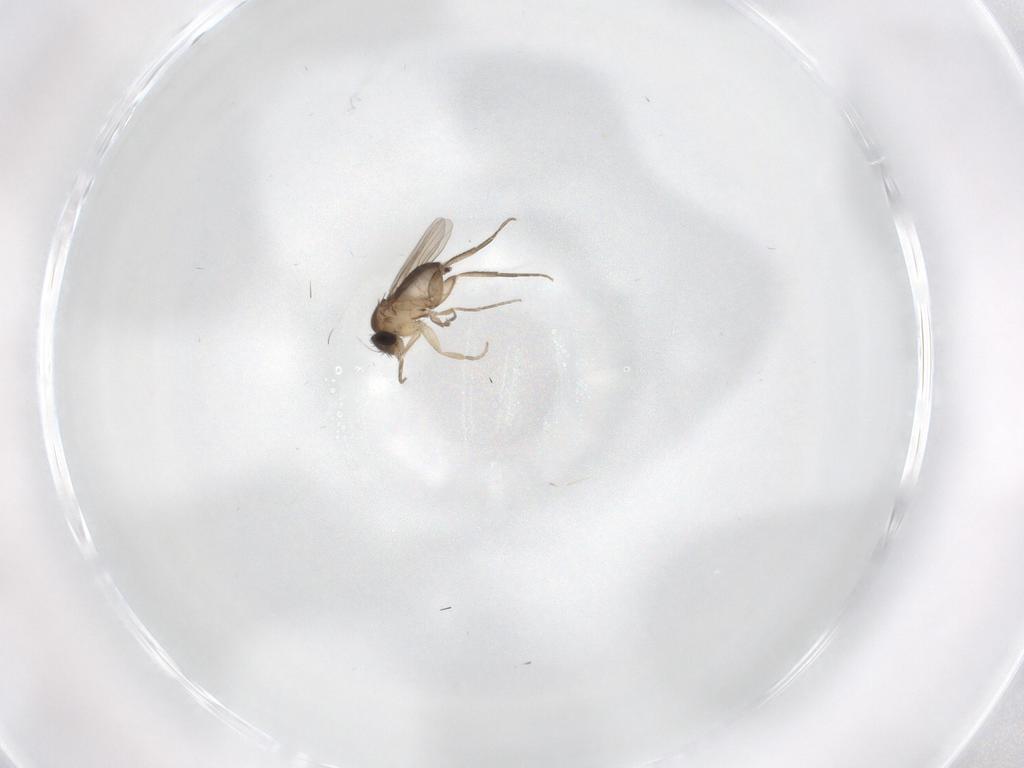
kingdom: Animalia
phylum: Arthropoda
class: Insecta
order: Diptera
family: Phoridae
